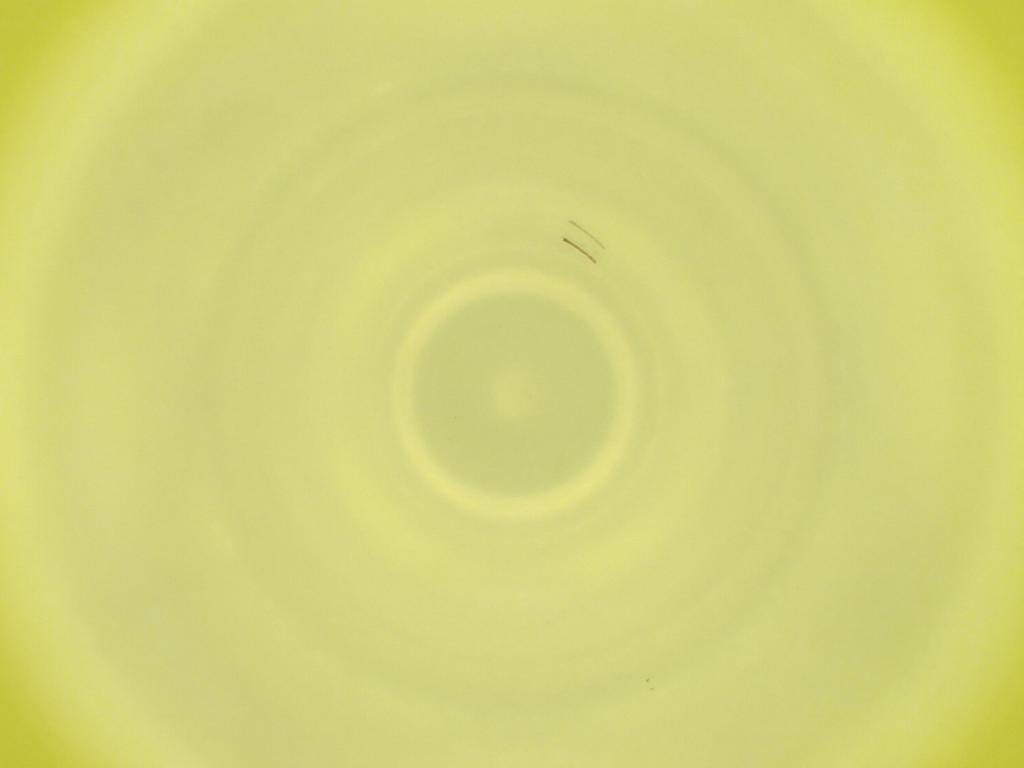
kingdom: Animalia
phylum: Arthropoda
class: Insecta
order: Diptera
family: Cecidomyiidae
